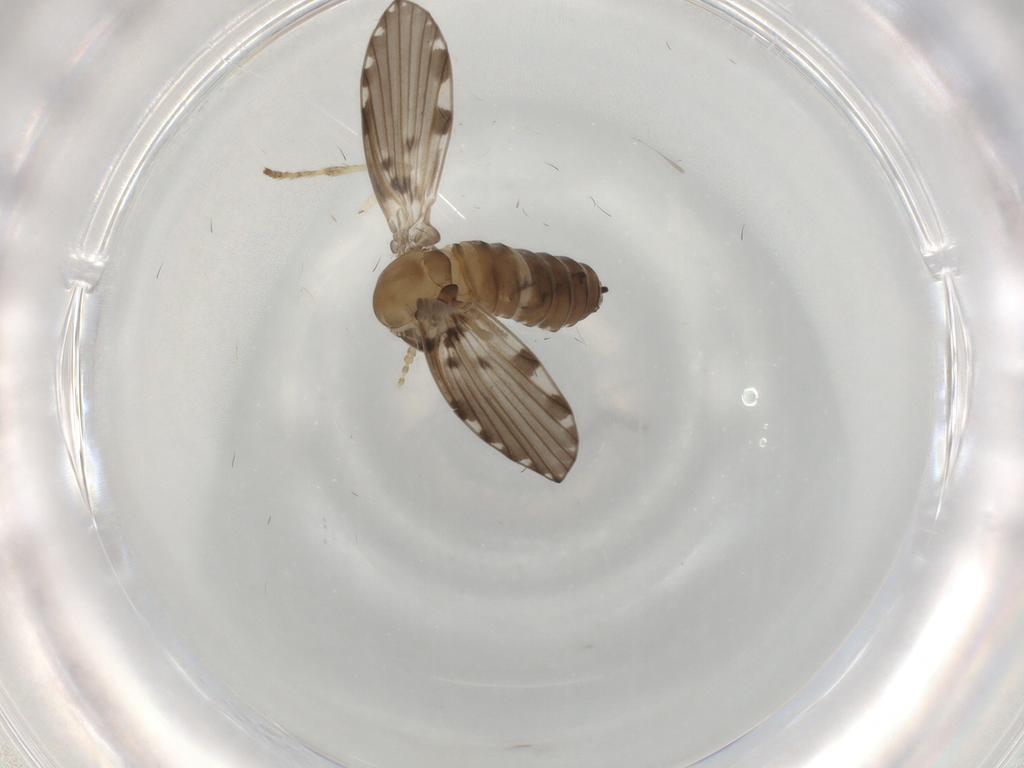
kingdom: Animalia
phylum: Arthropoda
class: Insecta
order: Diptera
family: Psychodidae
